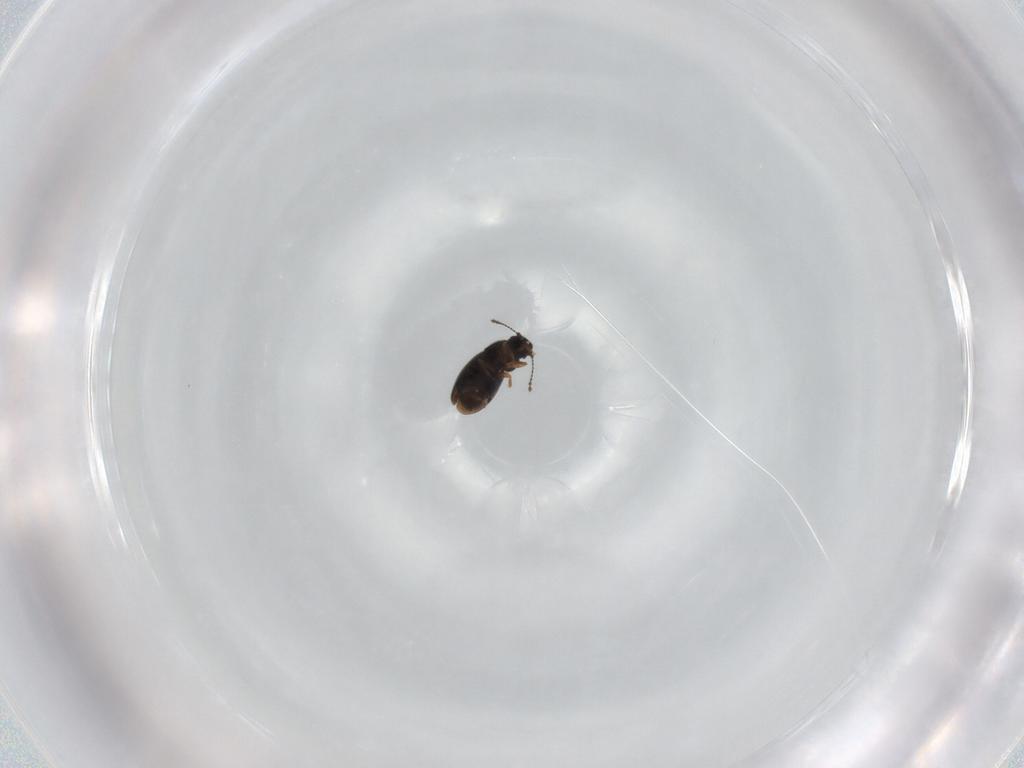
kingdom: Animalia
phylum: Arthropoda
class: Insecta
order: Coleoptera
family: Ptiliidae
